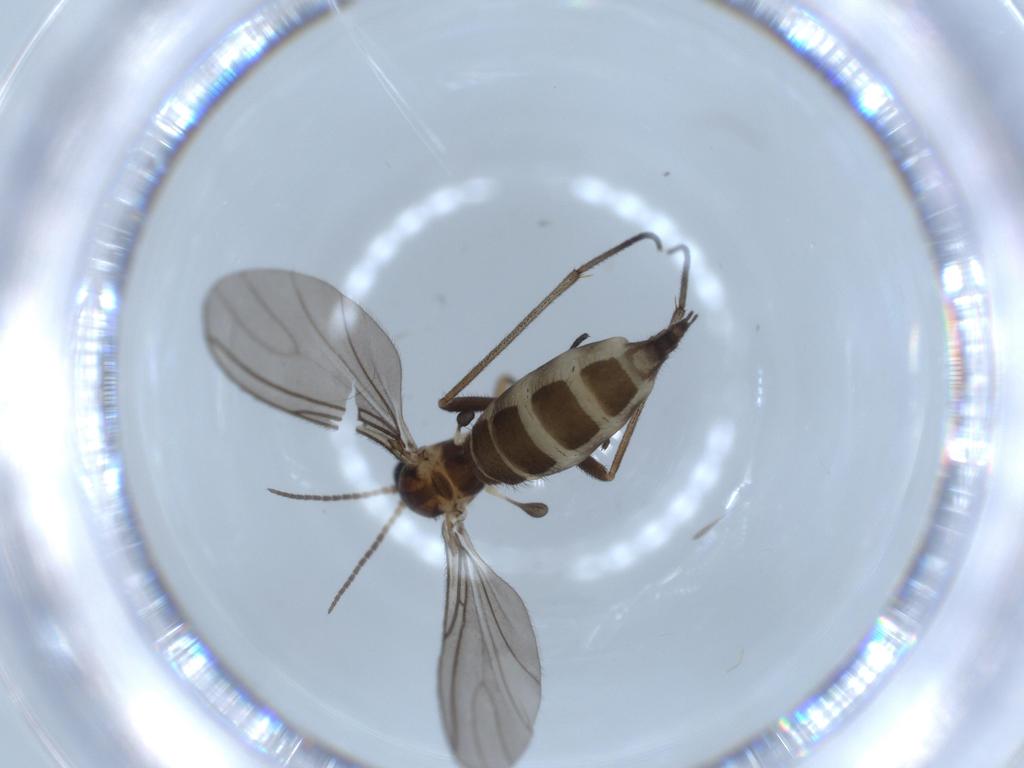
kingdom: Animalia
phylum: Arthropoda
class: Insecta
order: Diptera
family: Sciaridae
